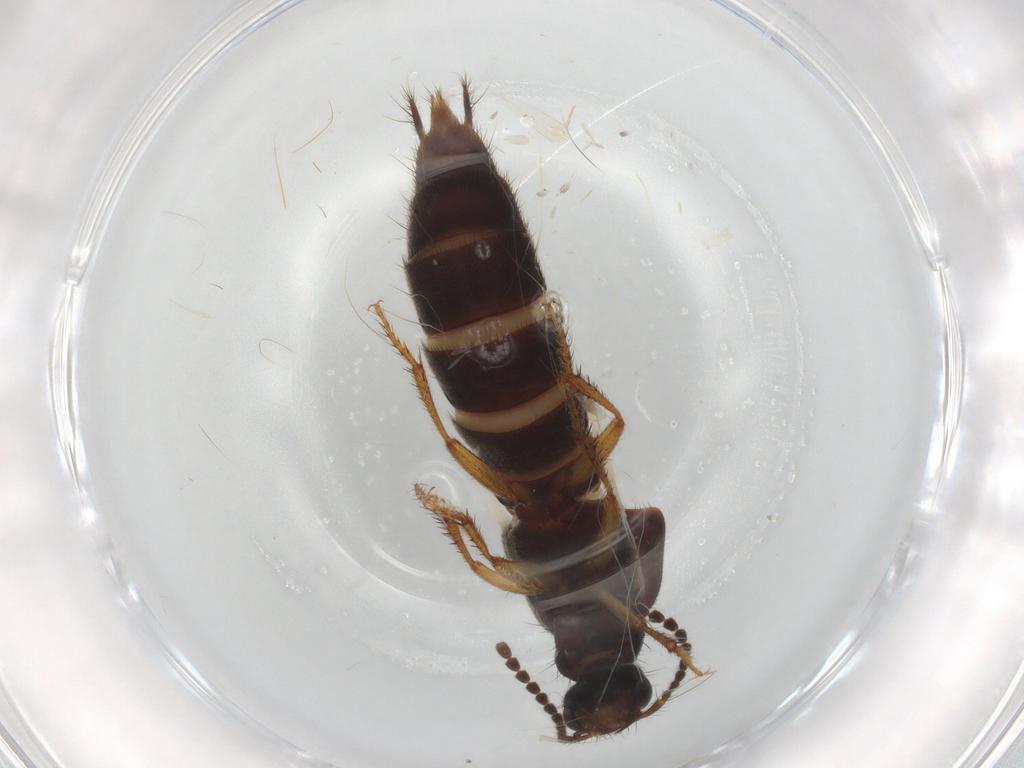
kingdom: Animalia
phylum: Arthropoda
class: Insecta
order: Coleoptera
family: Staphylinidae
